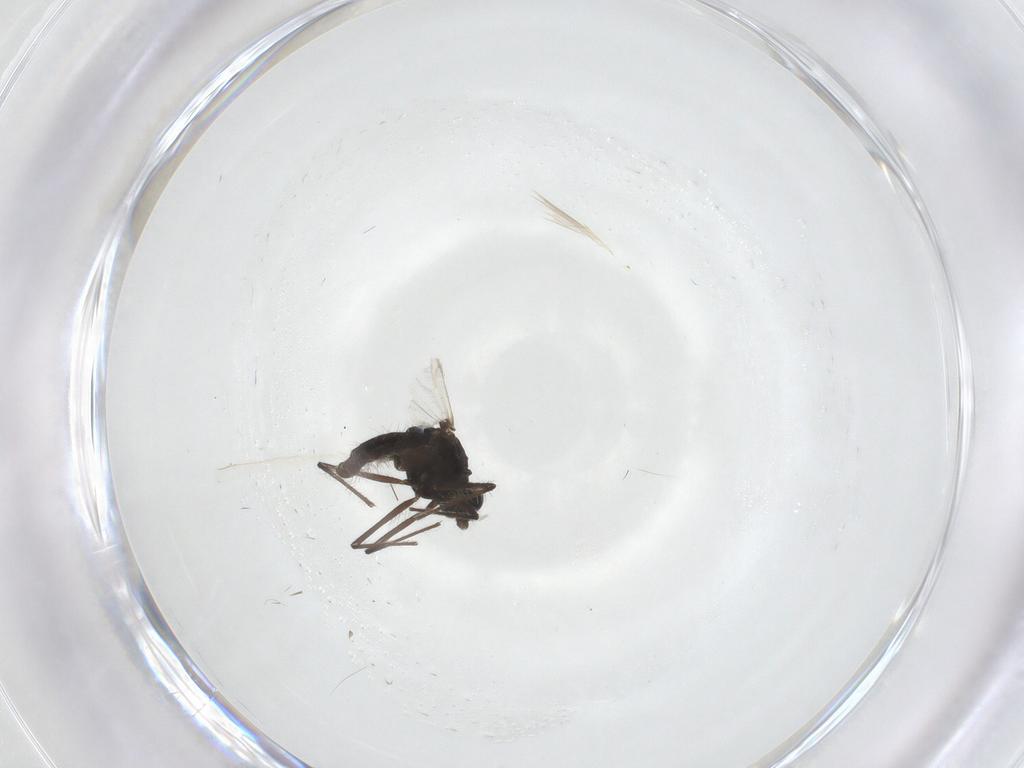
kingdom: Animalia
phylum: Arthropoda
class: Insecta
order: Diptera
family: Chironomidae
